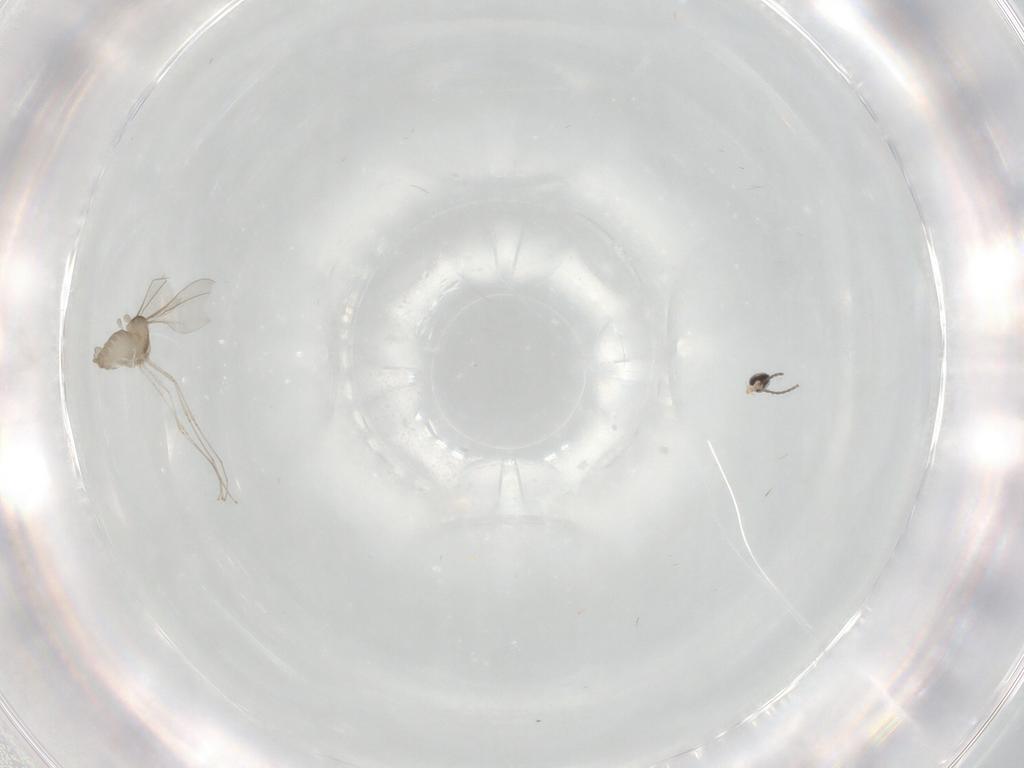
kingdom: Animalia
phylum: Arthropoda
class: Insecta
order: Diptera
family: Cecidomyiidae
